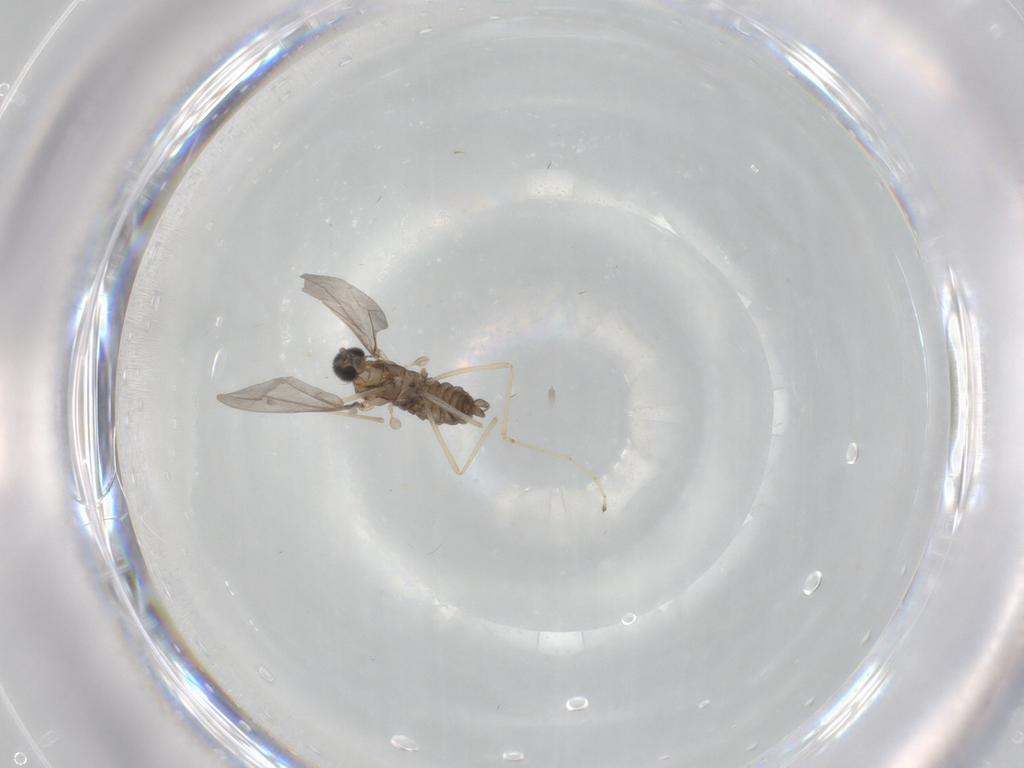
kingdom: Animalia
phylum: Arthropoda
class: Insecta
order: Diptera
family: Cecidomyiidae
